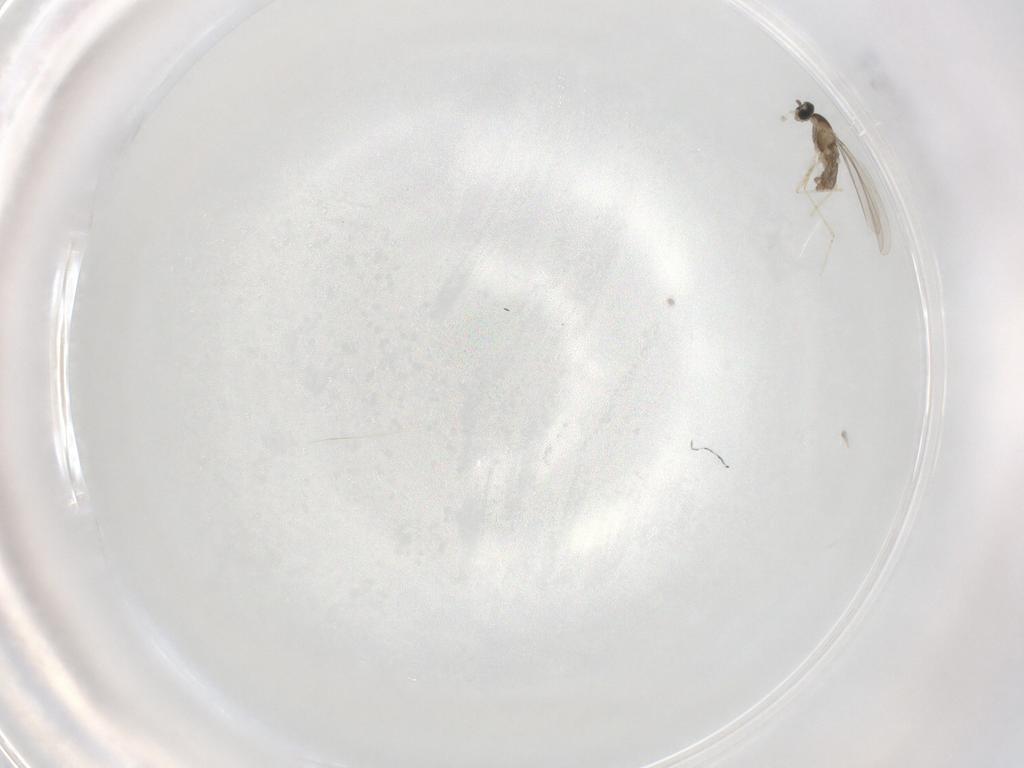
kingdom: Animalia
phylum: Arthropoda
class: Insecta
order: Diptera
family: Cecidomyiidae
